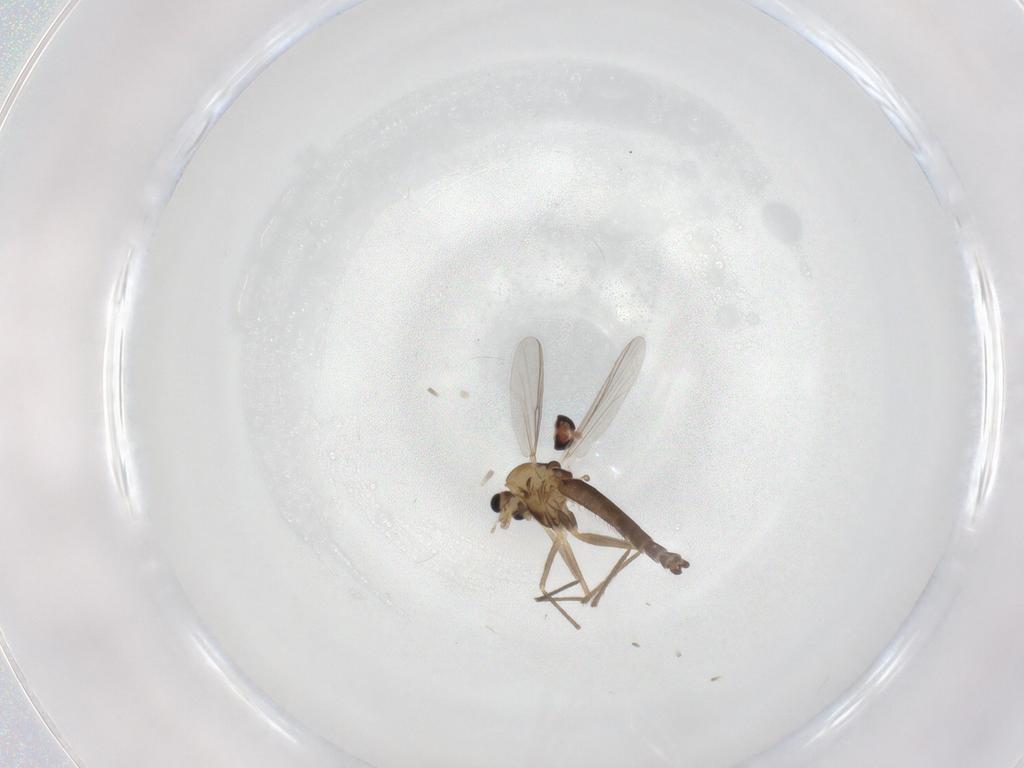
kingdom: Animalia
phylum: Arthropoda
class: Insecta
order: Diptera
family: Chironomidae
